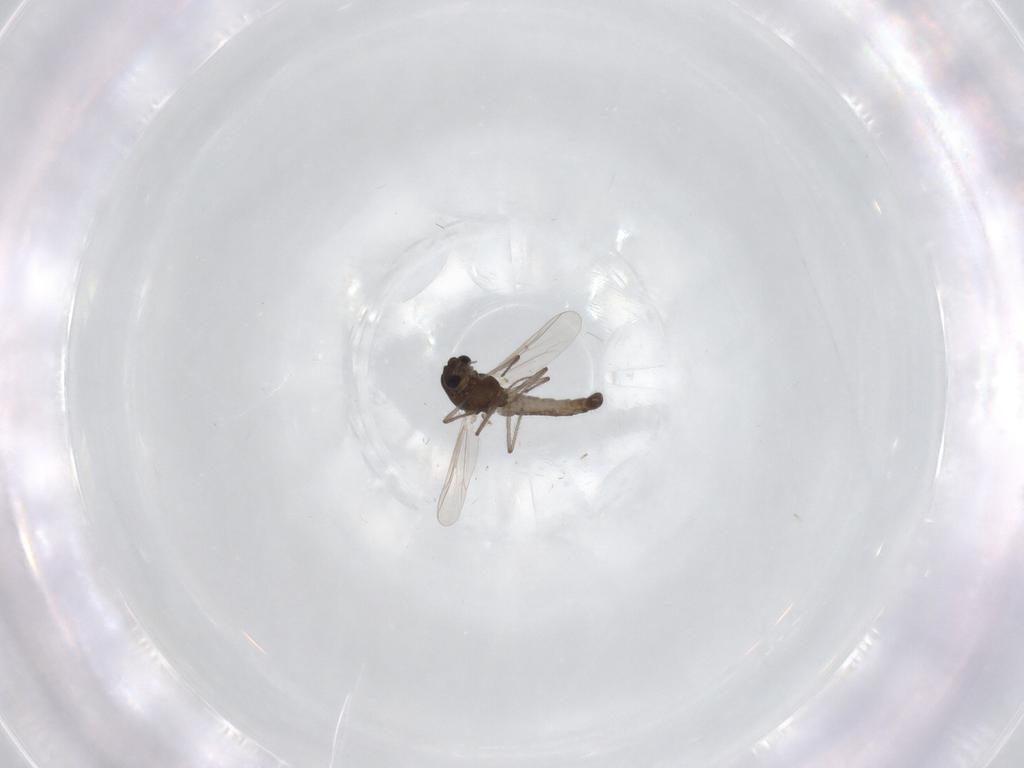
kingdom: Animalia
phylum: Arthropoda
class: Insecta
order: Diptera
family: Chironomidae
